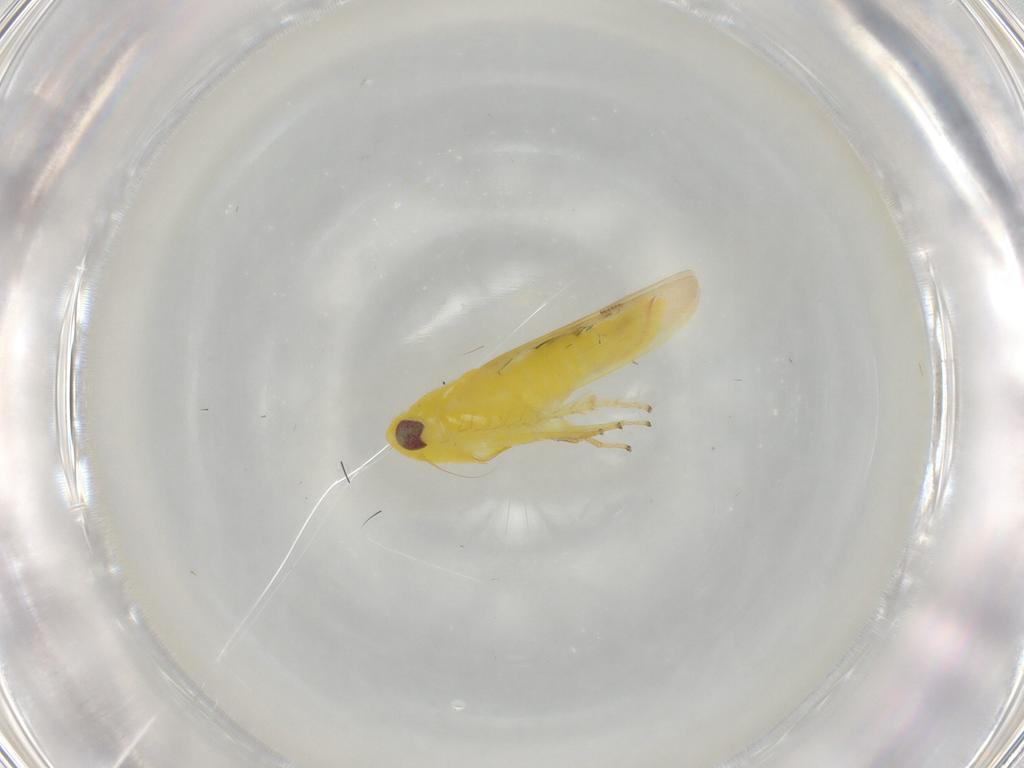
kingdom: Animalia
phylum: Arthropoda
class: Insecta
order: Hemiptera
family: Cicadellidae
